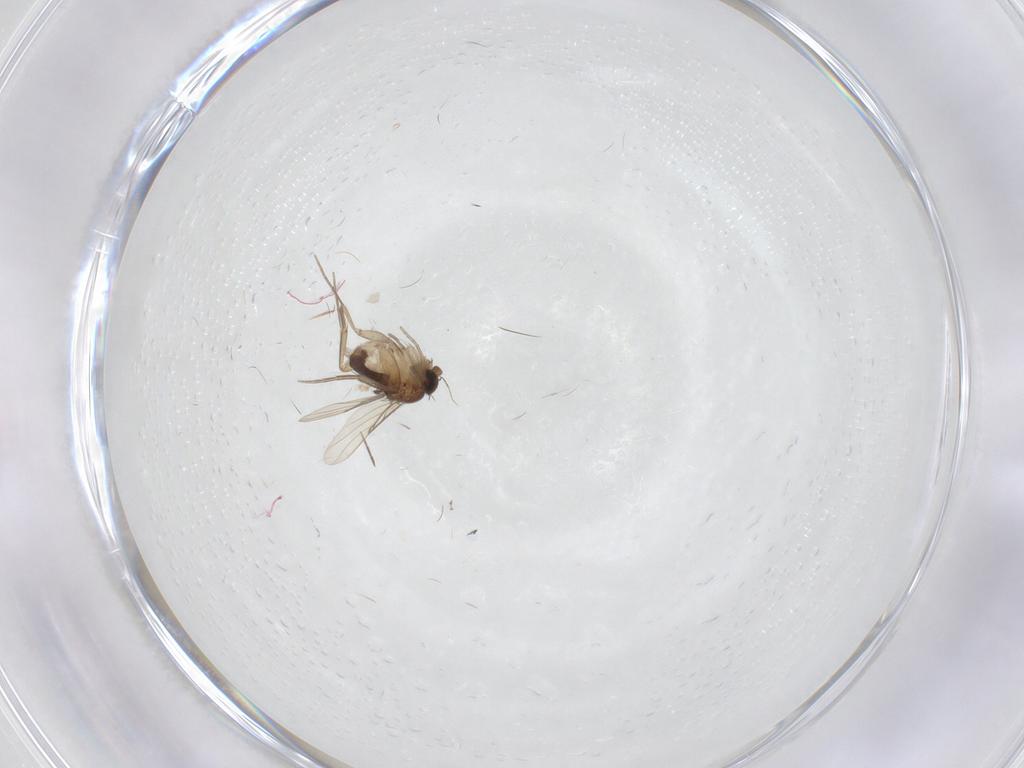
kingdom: Animalia
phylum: Arthropoda
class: Insecta
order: Diptera
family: Phoridae
